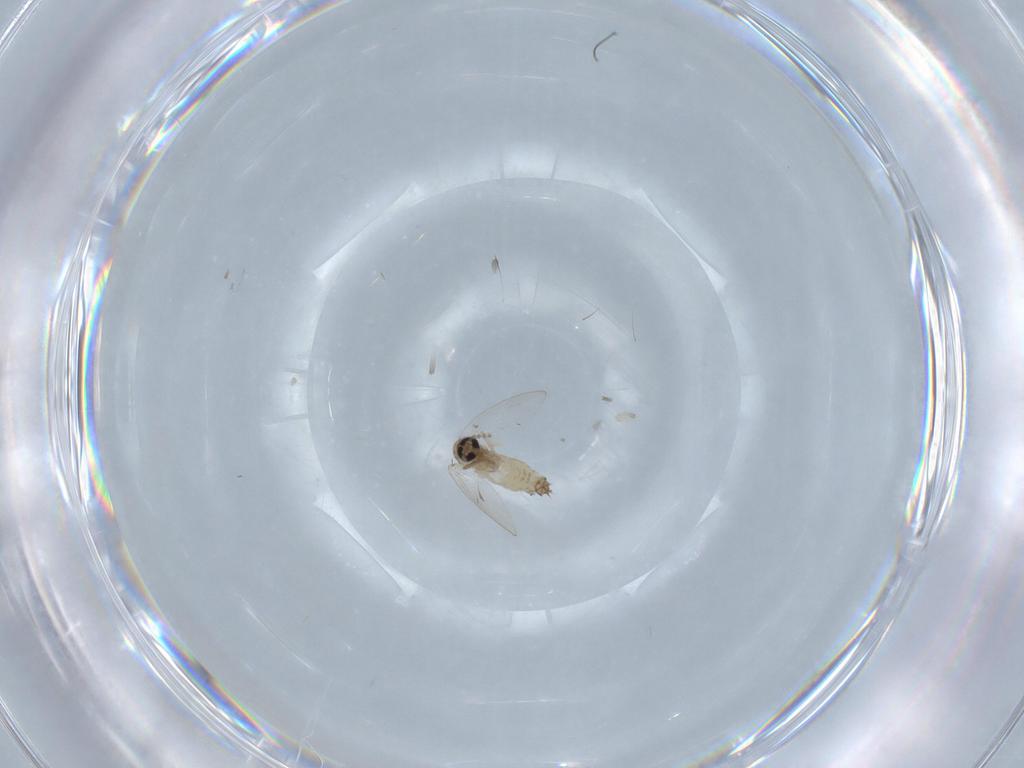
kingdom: Animalia
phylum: Arthropoda
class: Insecta
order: Diptera
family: Psychodidae
